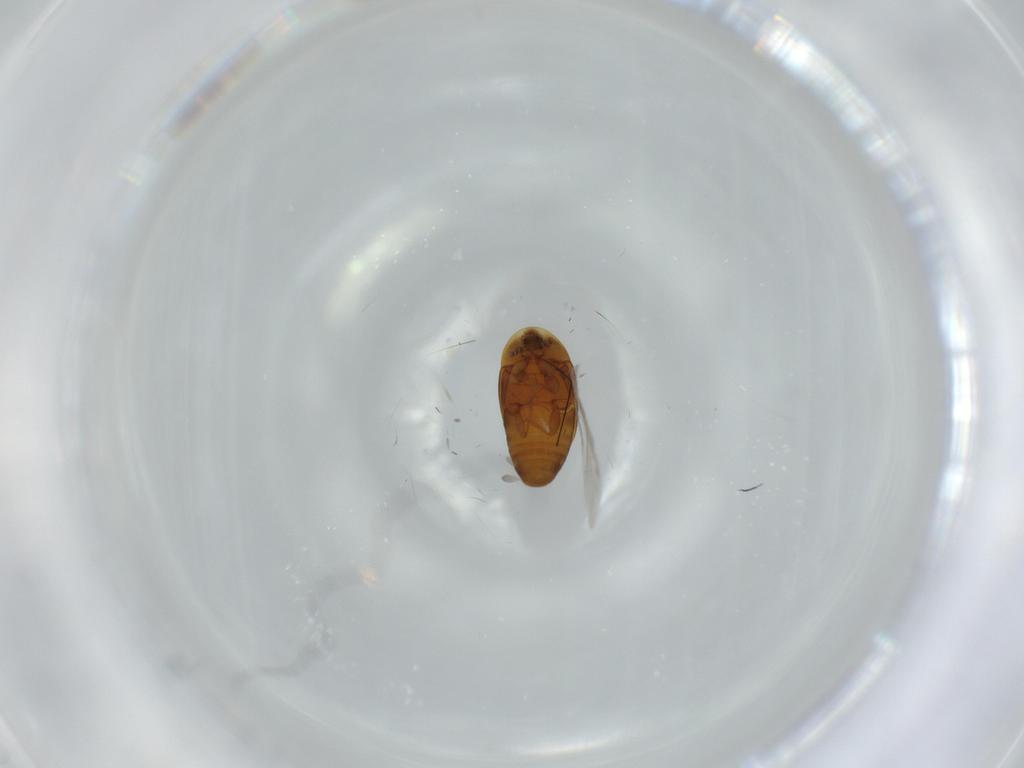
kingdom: Animalia
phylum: Arthropoda
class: Insecta
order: Coleoptera
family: Corylophidae
